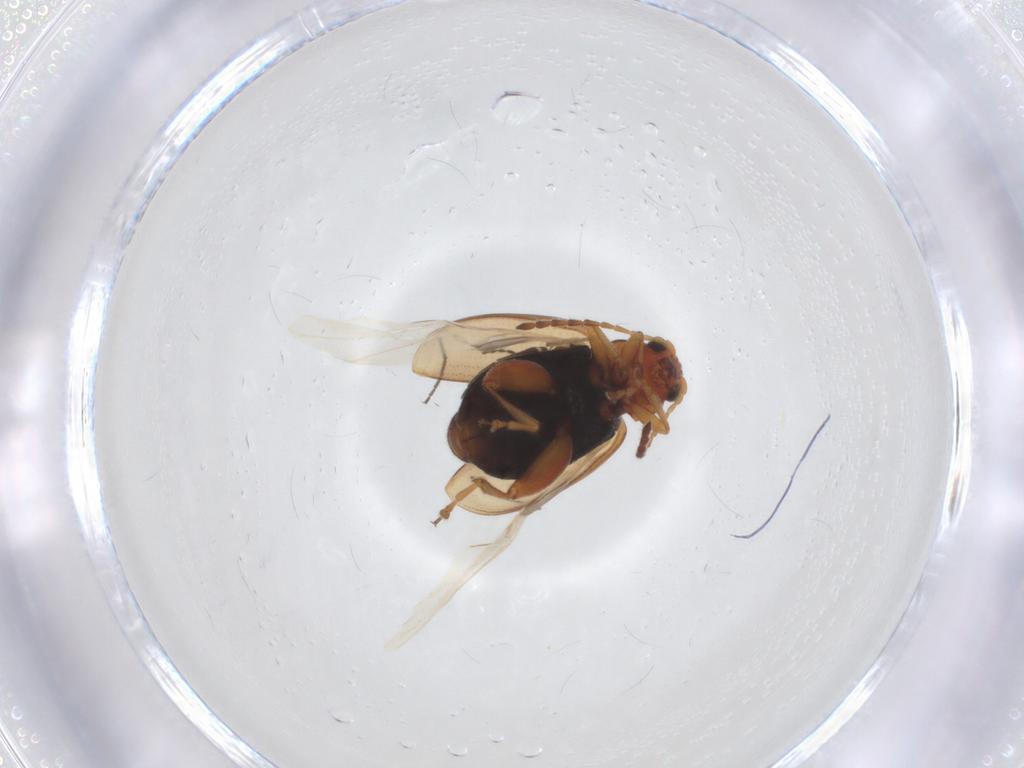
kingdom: Animalia
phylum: Arthropoda
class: Insecta
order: Coleoptera
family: Chrysomelidae
